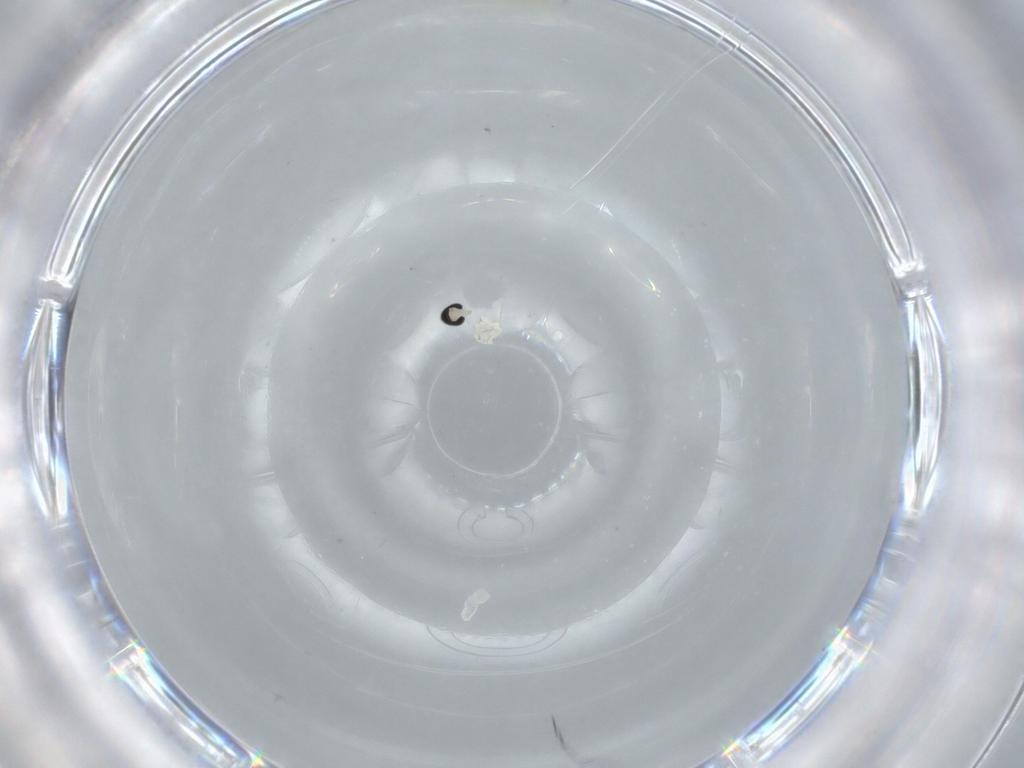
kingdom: Animalia
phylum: Arthropoda
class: Insecta
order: Diptera
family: Cecidomyiidae
